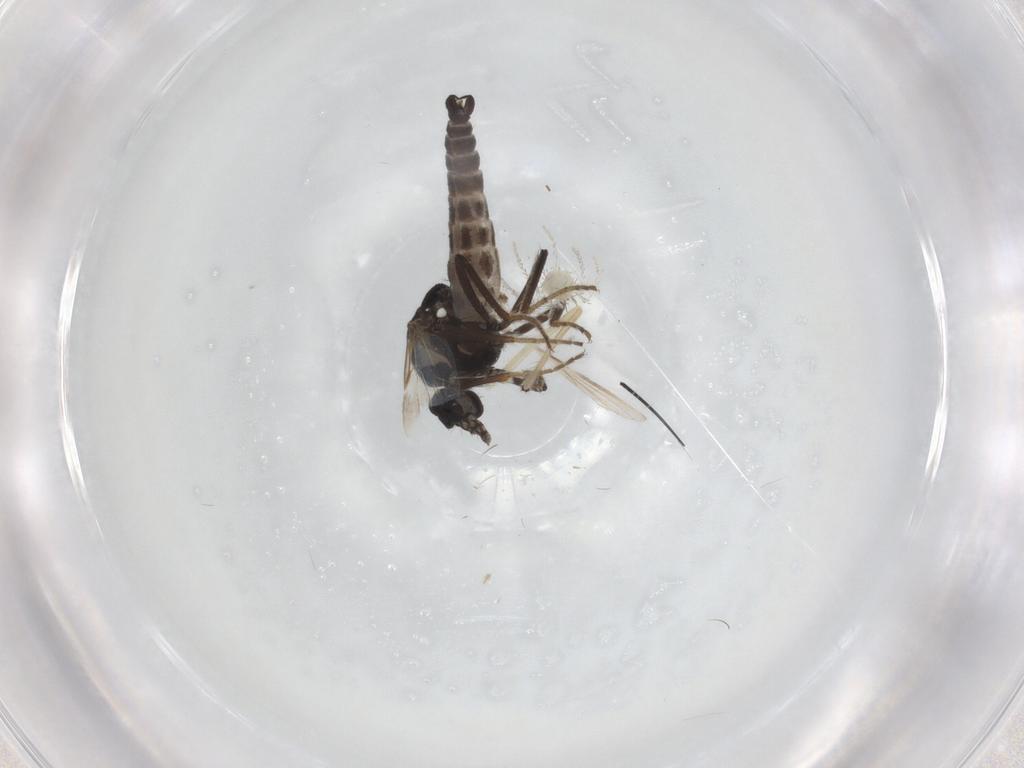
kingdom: Animalia
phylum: Arthropoda
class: Insecta
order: Diptera
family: Ceratopogonidae
